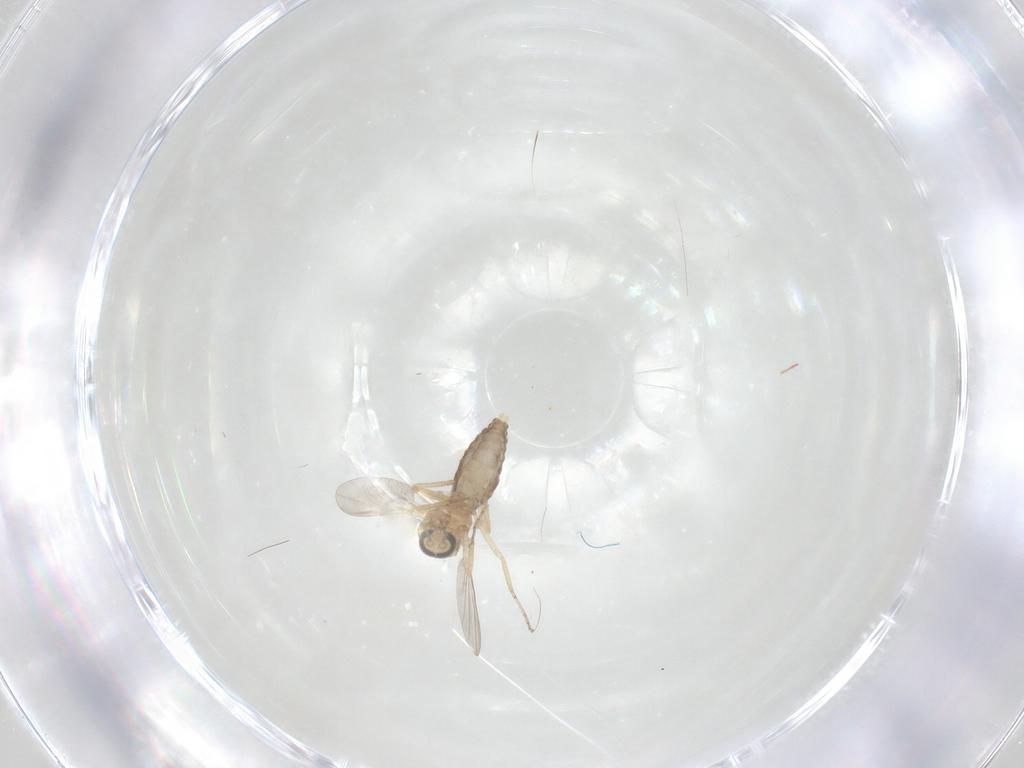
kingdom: Animalia
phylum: Arthropoda
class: Insecta
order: Diptera
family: Ceratopogonidae
